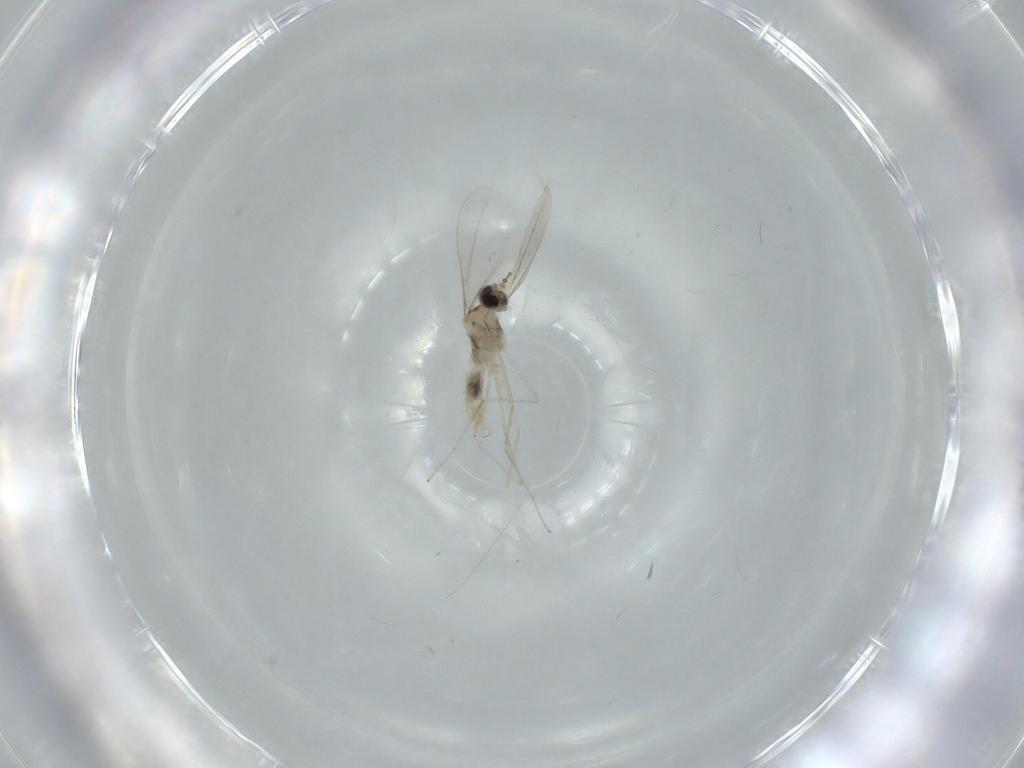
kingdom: Animalia
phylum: Arthropoda
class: Insecta
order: Diptera
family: Cecidomyiidae
